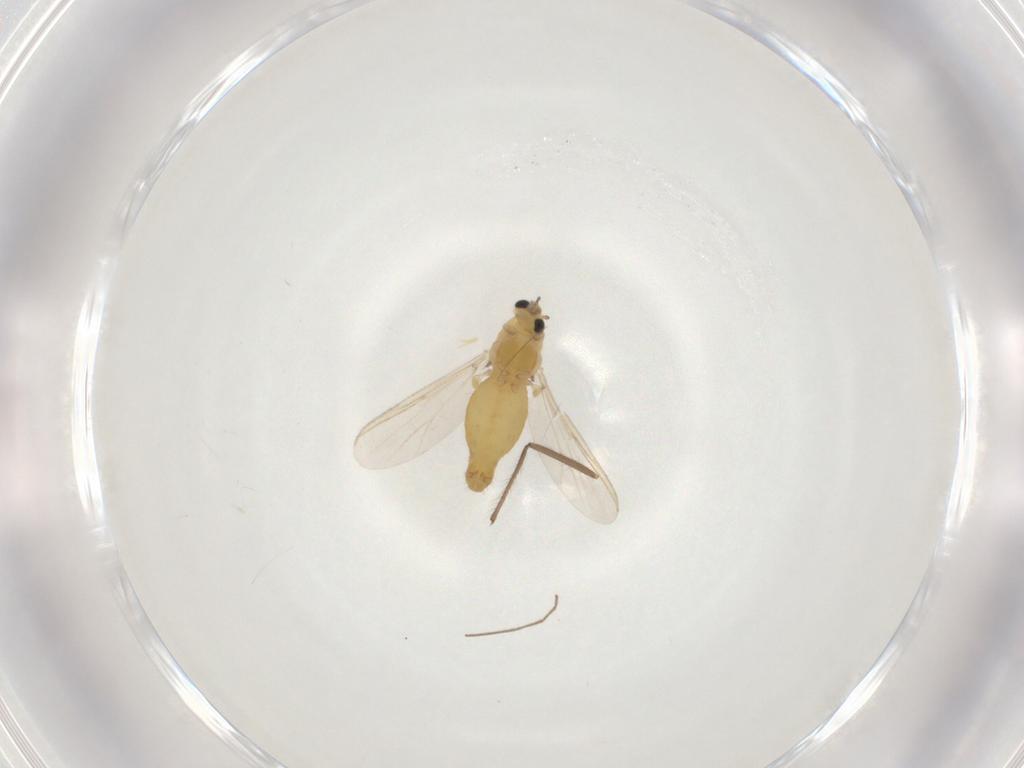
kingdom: Animalia
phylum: Arthropoda
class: Insecta
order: Diptera
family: Chironomidae
